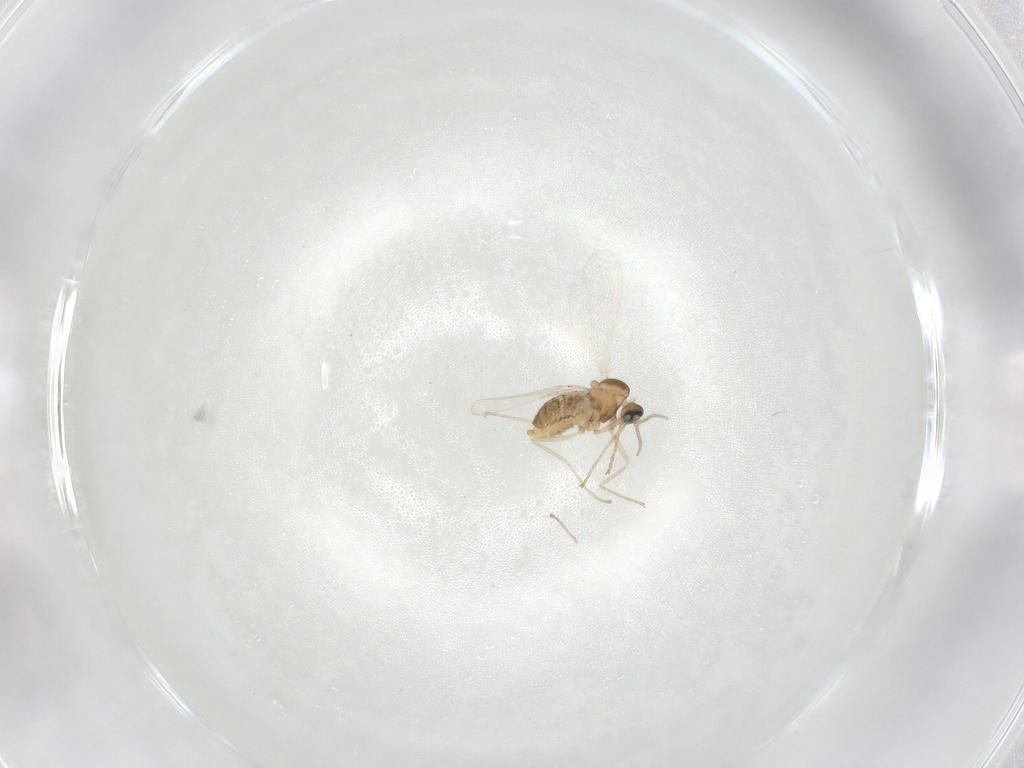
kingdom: Animalia
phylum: Arthropoda
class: Insecta
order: Diptera
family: Cecidomyiidae
